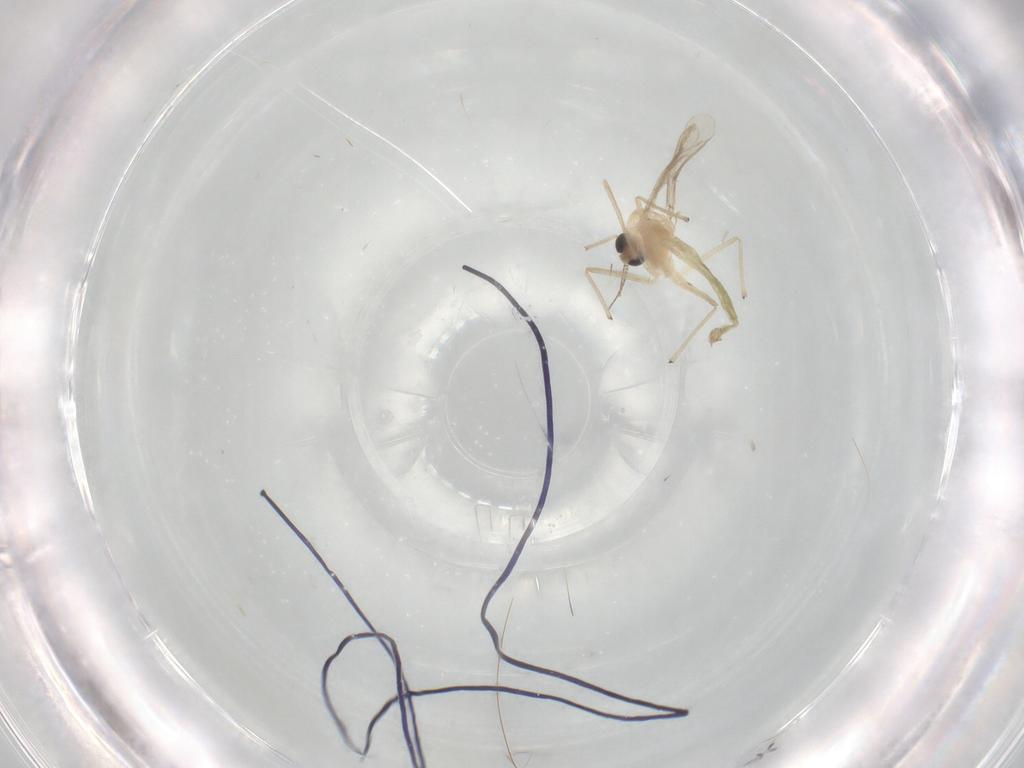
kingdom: Animalia
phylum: Arthropoda
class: Insecta
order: Diptera
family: Chironomidae
